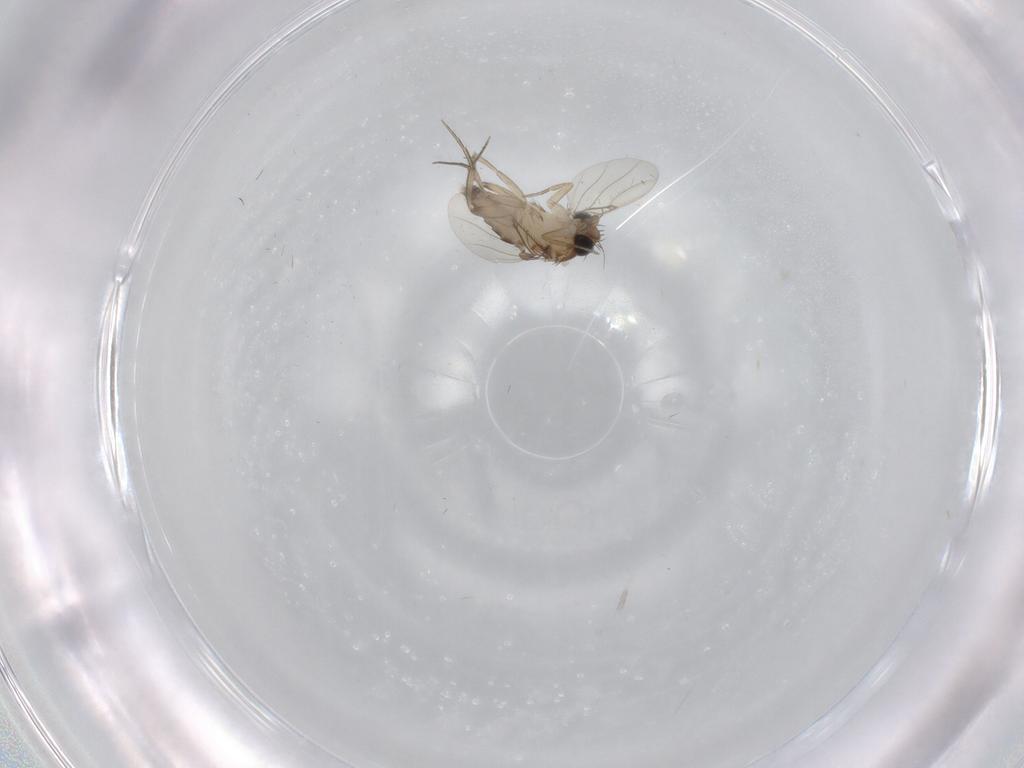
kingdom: Animalia
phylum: Arthropoda
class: Insecta
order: Diptera
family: Phoridae
